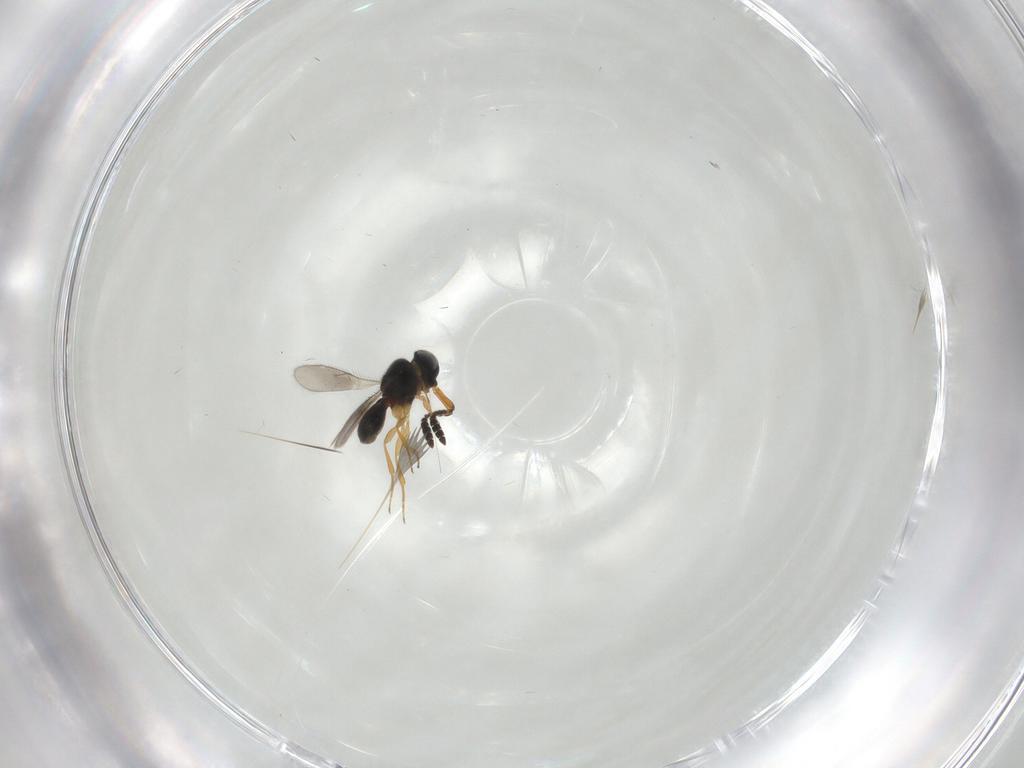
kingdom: Animalia
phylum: Arthropoda
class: Insecta
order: Hymenoptera
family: Scelionidae
